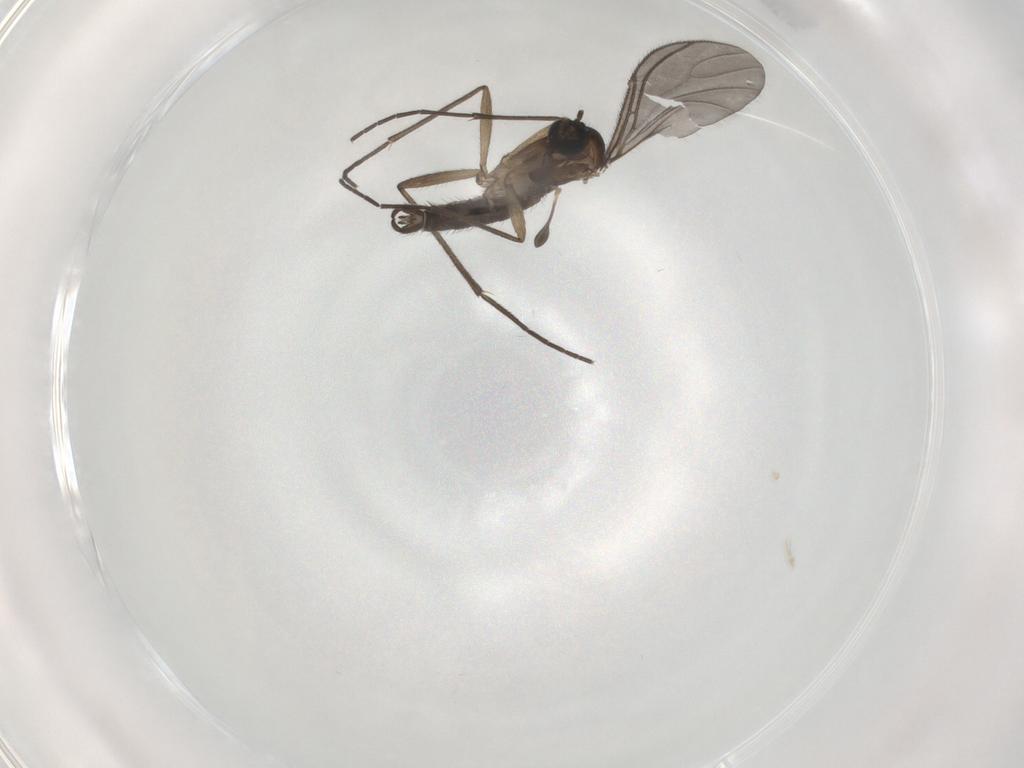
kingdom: Animalia
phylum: Arthropoda
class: Insecta
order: Diptera
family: Sciaridae
